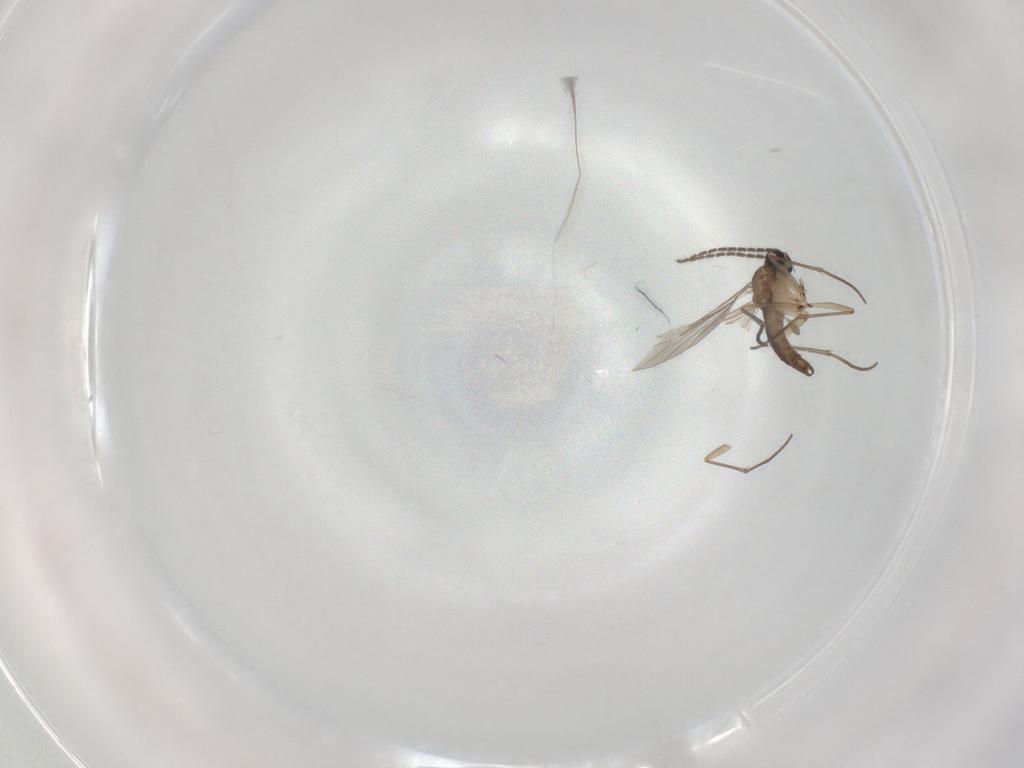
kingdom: Animalia
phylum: Arthropoda
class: Insecta
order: Diptera
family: Sciaridae
